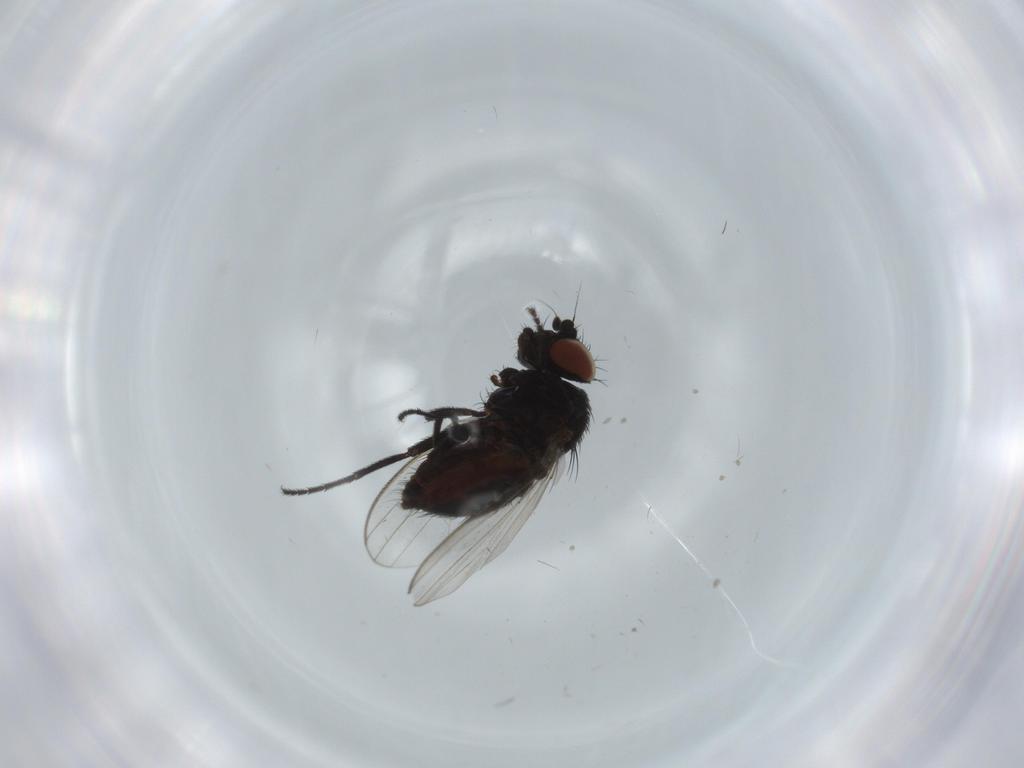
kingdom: Animalia
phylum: Arthropoda
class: Insecta
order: Diptera
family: Milichiidae
